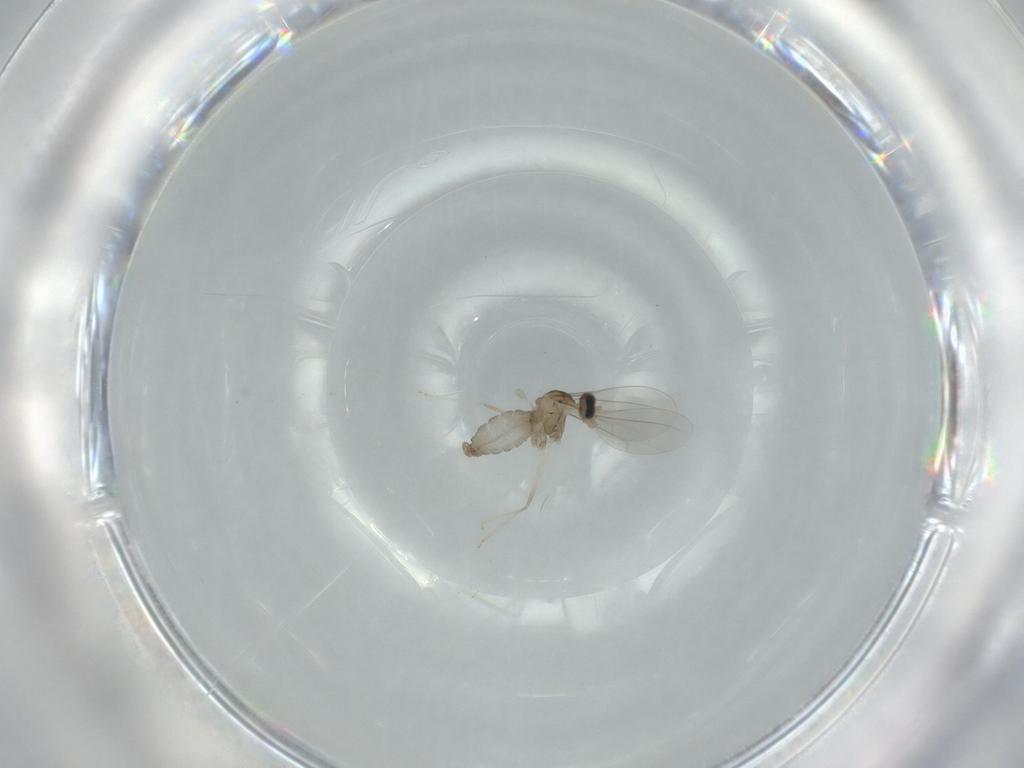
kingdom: Animalia
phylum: Arthropoda
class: Insecta
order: Diptera
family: Cecidomyiidae
